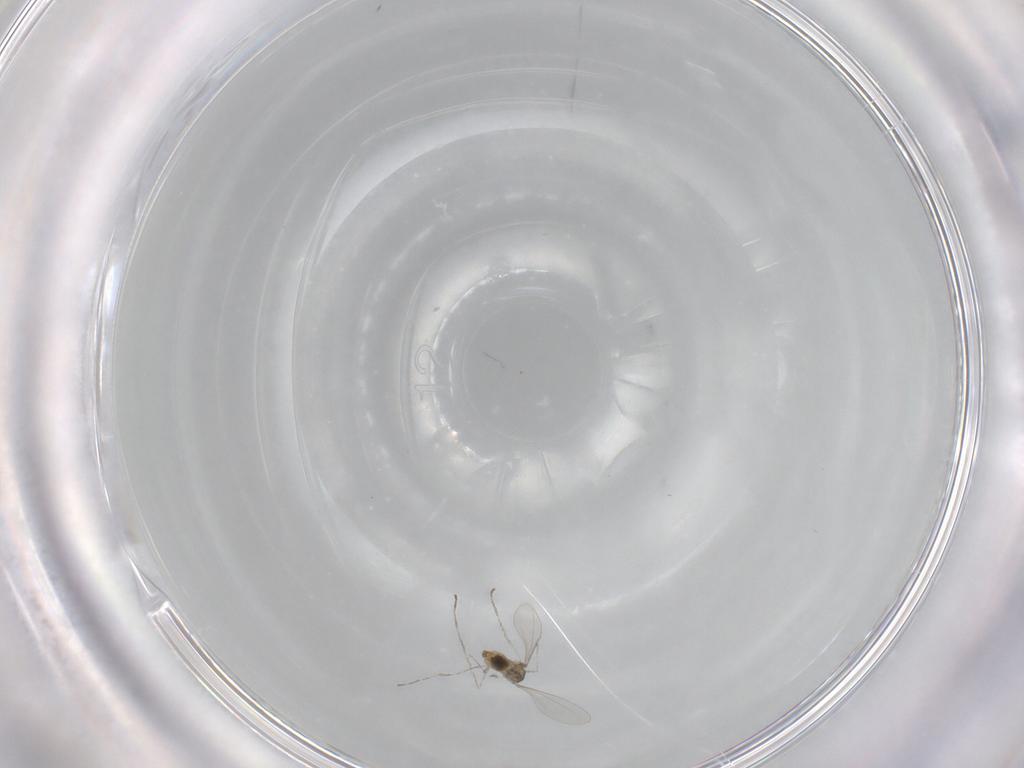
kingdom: Animalia
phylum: Arthropoda
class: Insecta
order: Diptera
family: Cecidomyiidae
